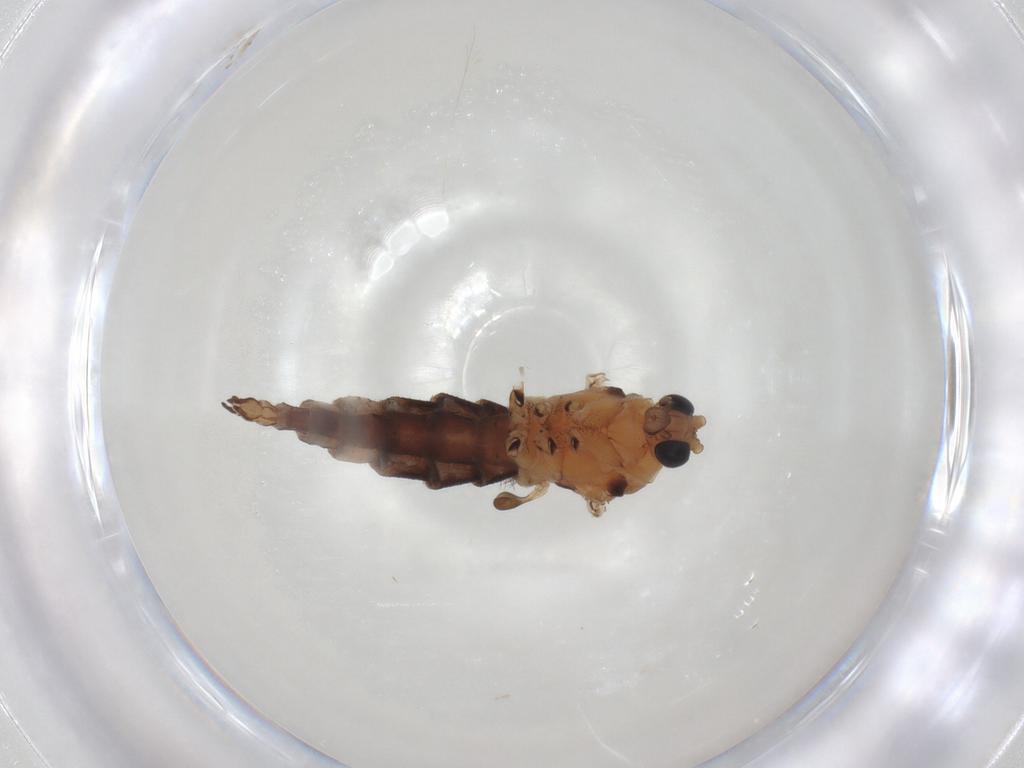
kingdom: Animalia
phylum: Arthropoda
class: Insecta
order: Diptera
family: Sciaridae
